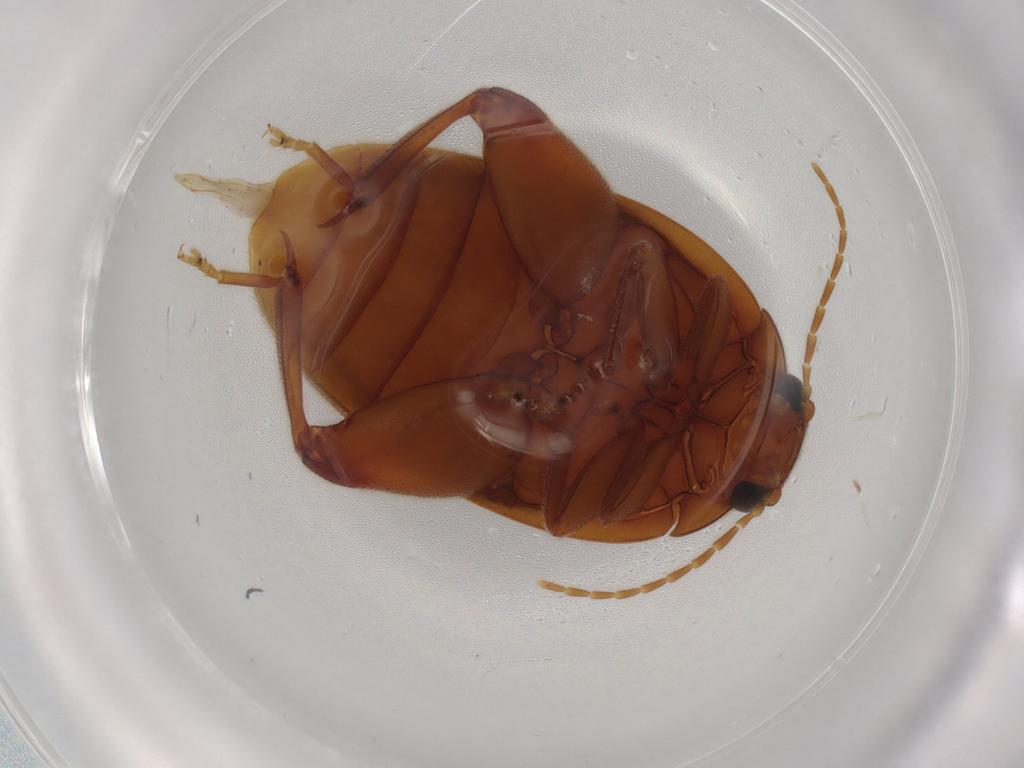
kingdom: Animalia
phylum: Arthropoda
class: Insecta
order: Coleoptera
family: Scirtidae
